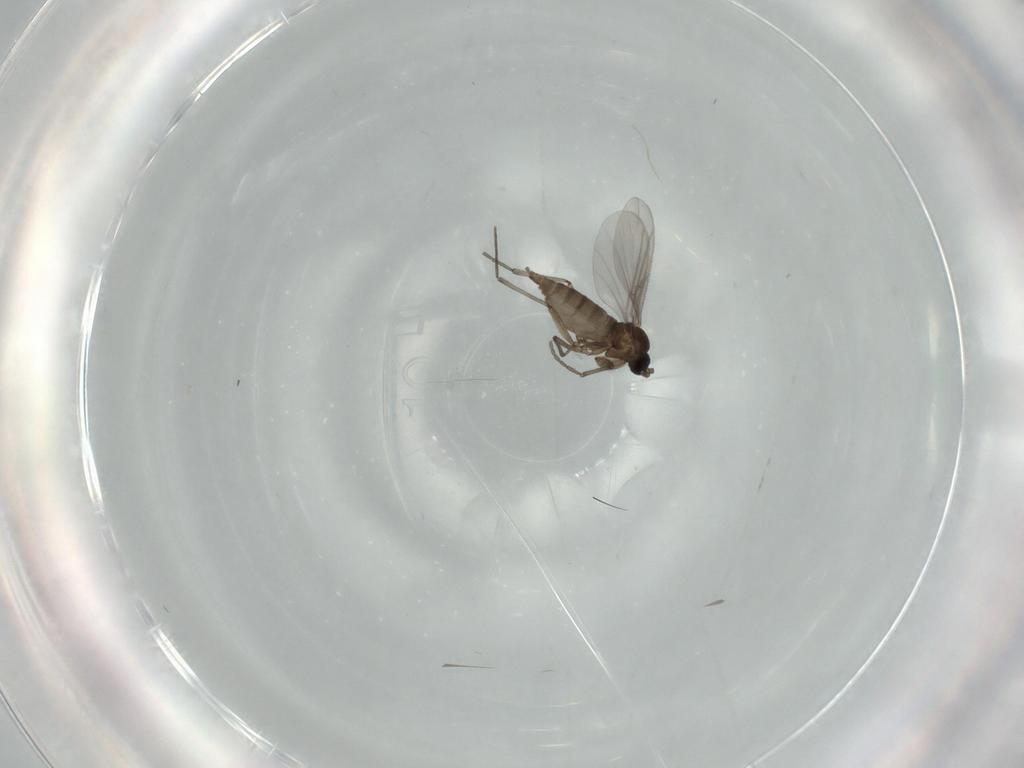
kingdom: Animalia
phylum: Arthropoda
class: Insecta
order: Diptera
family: Sciaridae
